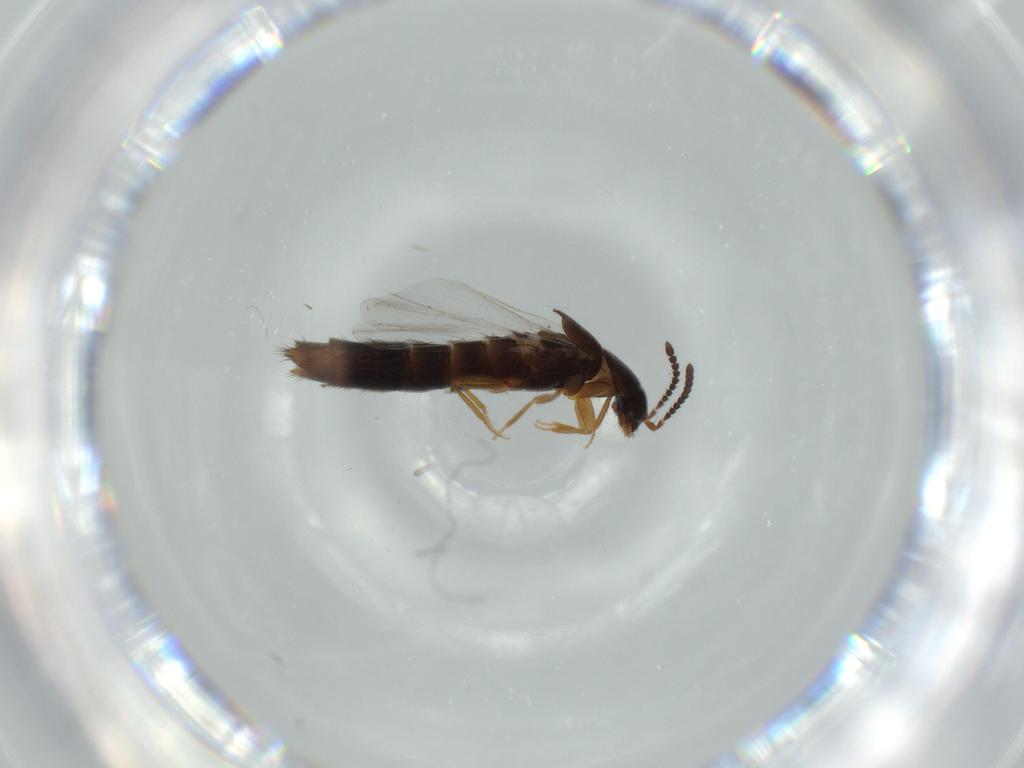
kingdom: Animalia
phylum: Arthropoda
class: Insecta
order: Coleoptera
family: Elateridae
